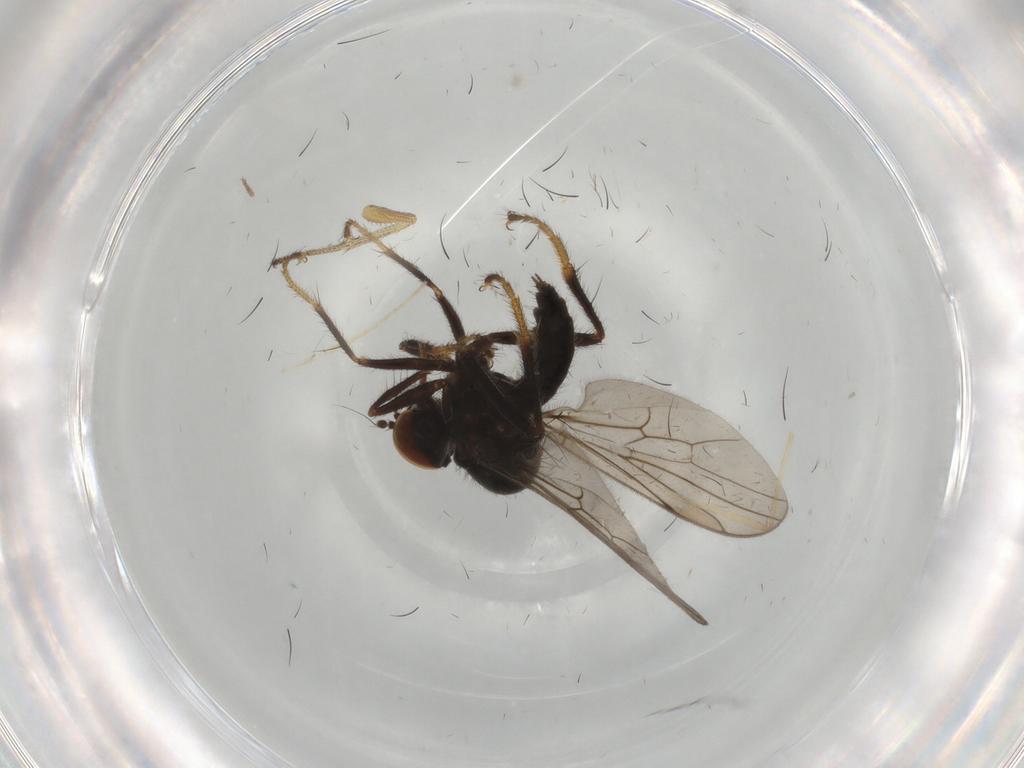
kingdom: Animalia
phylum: Arthropoda
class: Insecta
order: Diptera
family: Hybotidae
